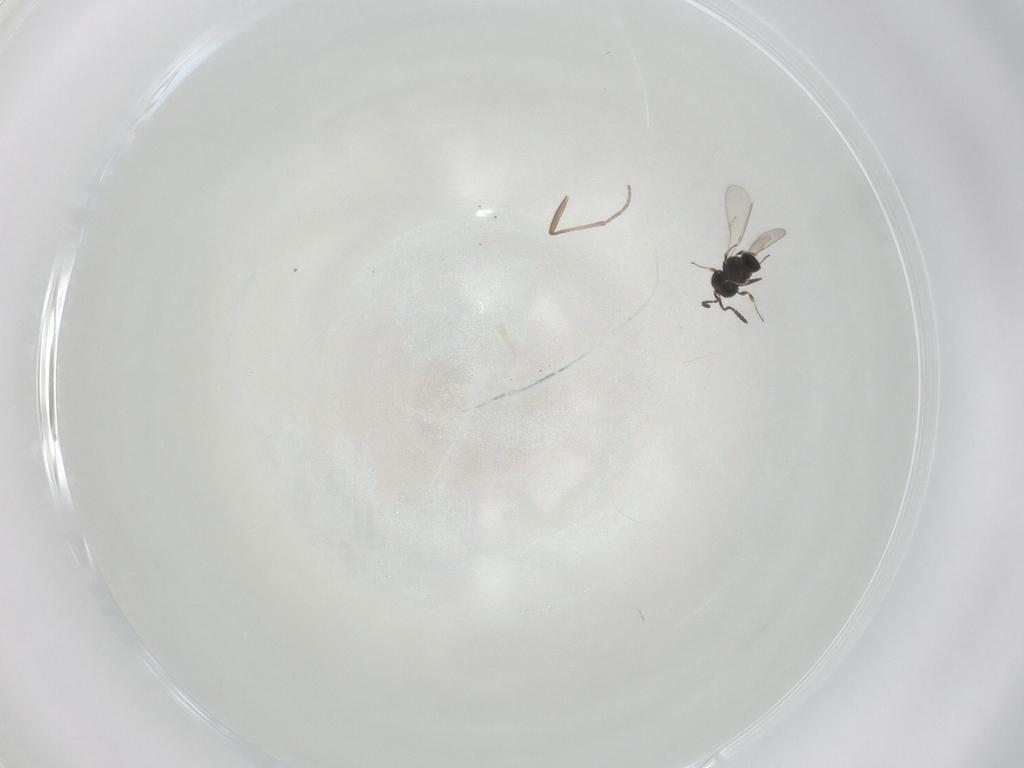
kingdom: Animalia
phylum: Arthropoda
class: Insecta
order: Hymenoptera
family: Scelionidae
